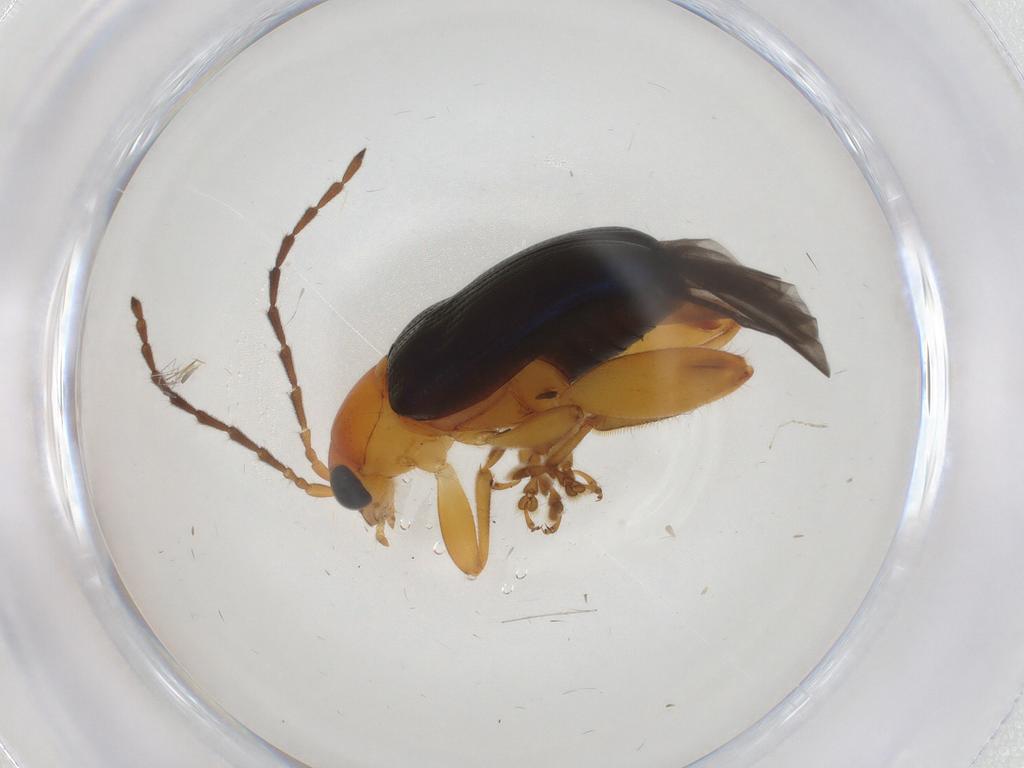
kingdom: Animalia
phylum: Arthropoda
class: Insecta
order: Coleoptera
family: Chrysomelidae
